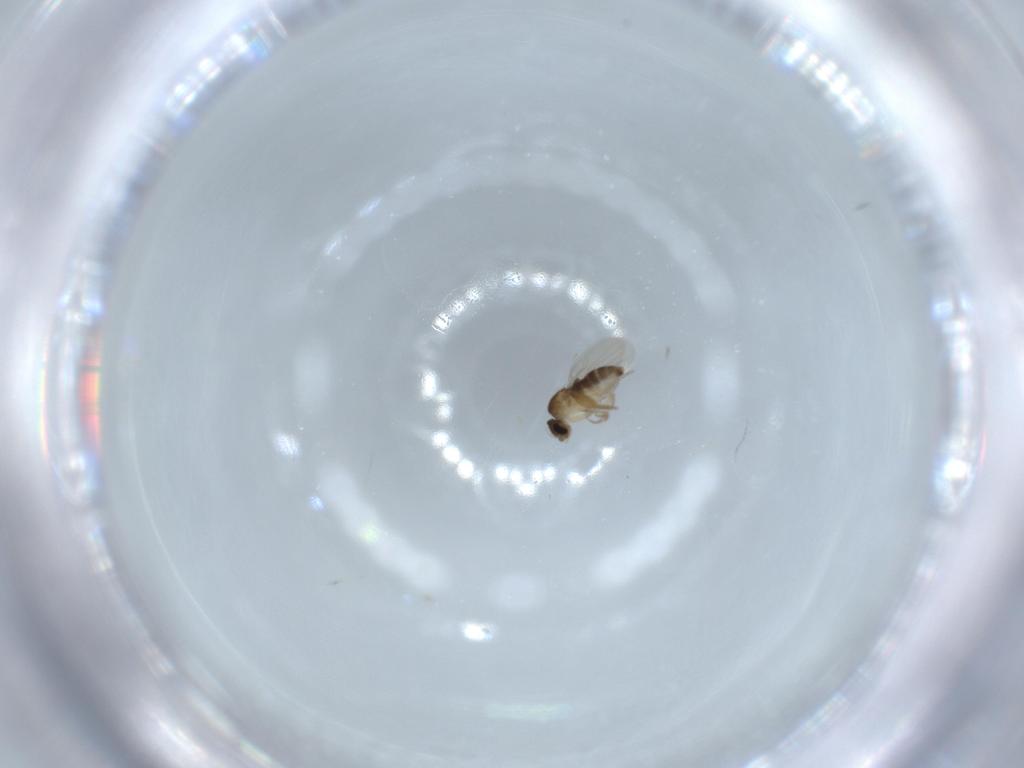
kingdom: Animalia
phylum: Arthropoda
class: Insecta
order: Diptera
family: Phoridae
